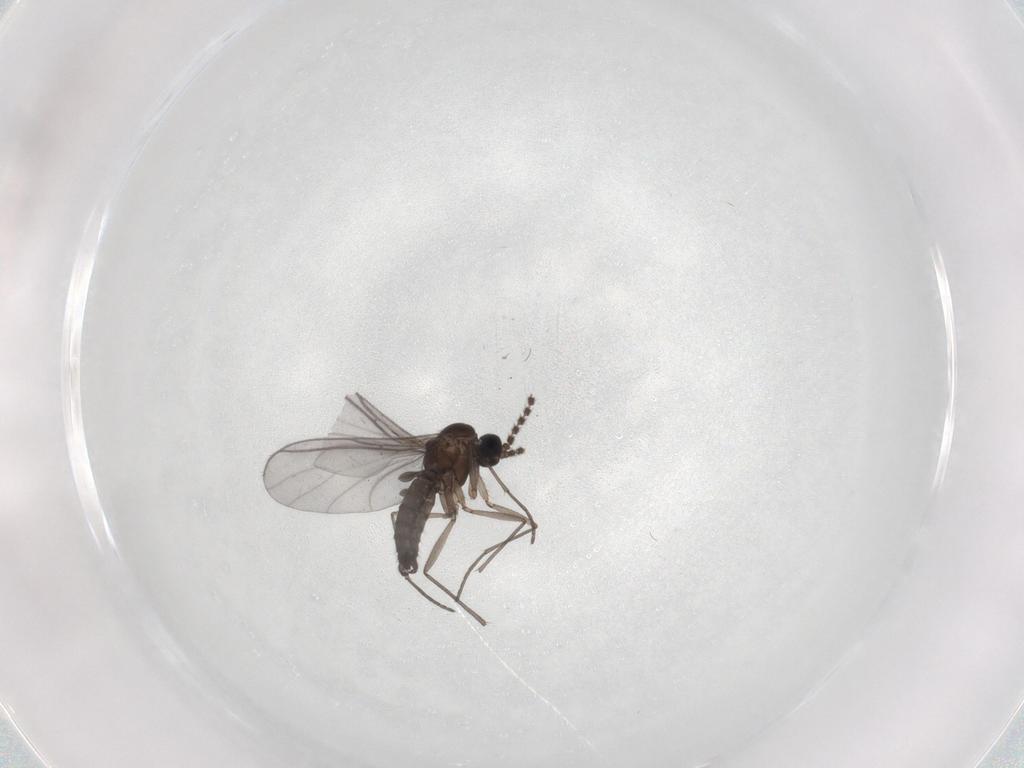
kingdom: Animalia
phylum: Arthropoda
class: Insecta
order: Diptera
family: Sciaridae
